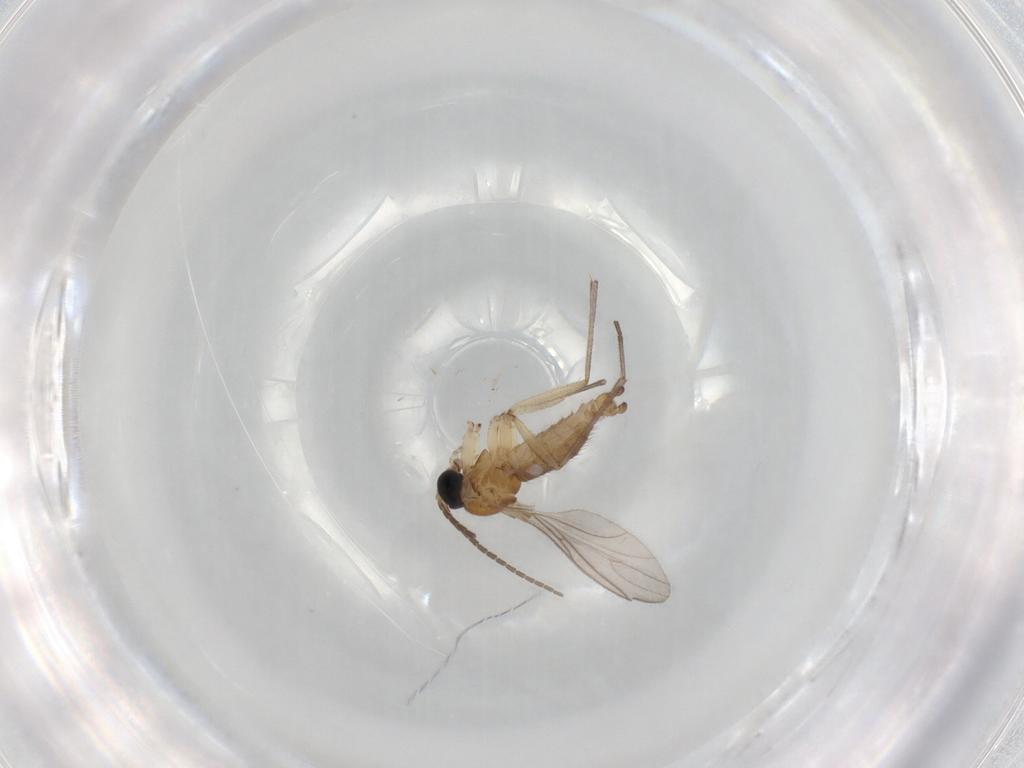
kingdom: Animalia
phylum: Arthropoda
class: Insecta
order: Diptera
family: Sciaridae
